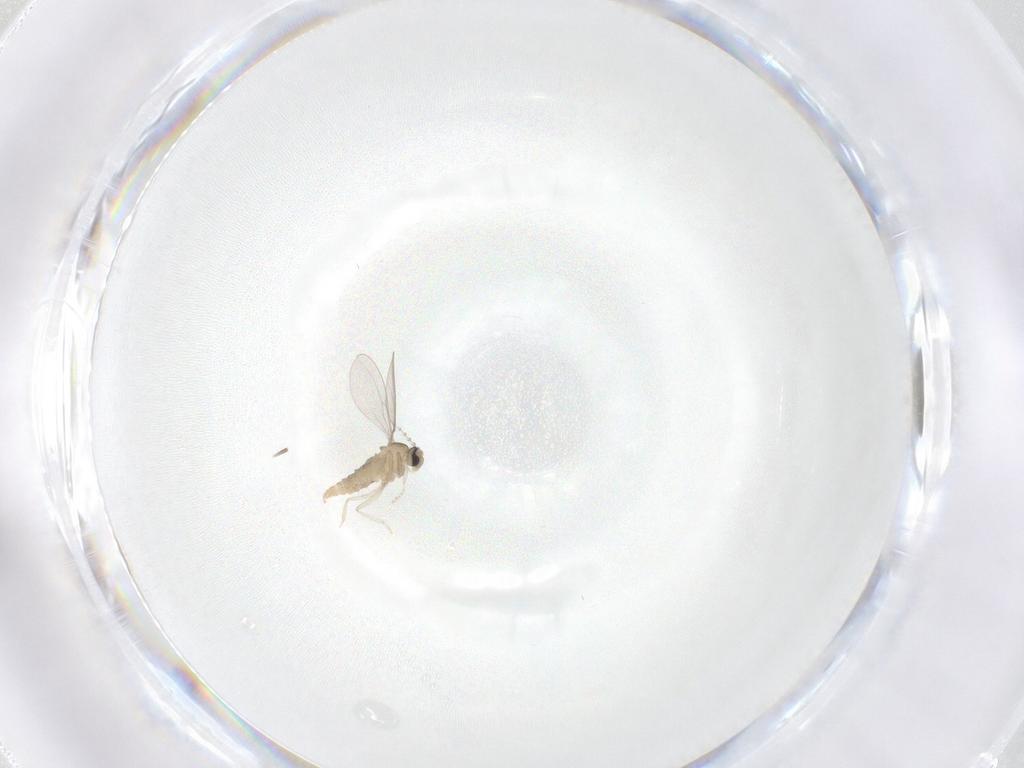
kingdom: Animalia
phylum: Arthropoda
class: Insecta
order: Diptera
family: Cecidomyiidae
